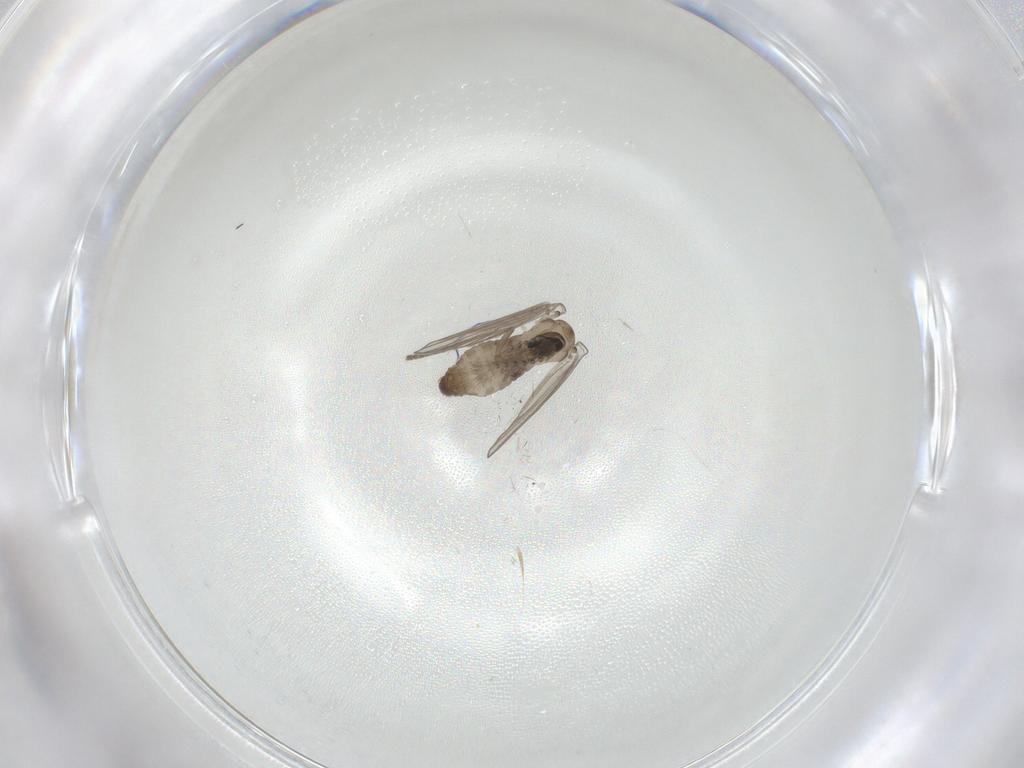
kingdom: Animalia
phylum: Arthropoda
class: Insecta
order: Diptera
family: Psychodidae
